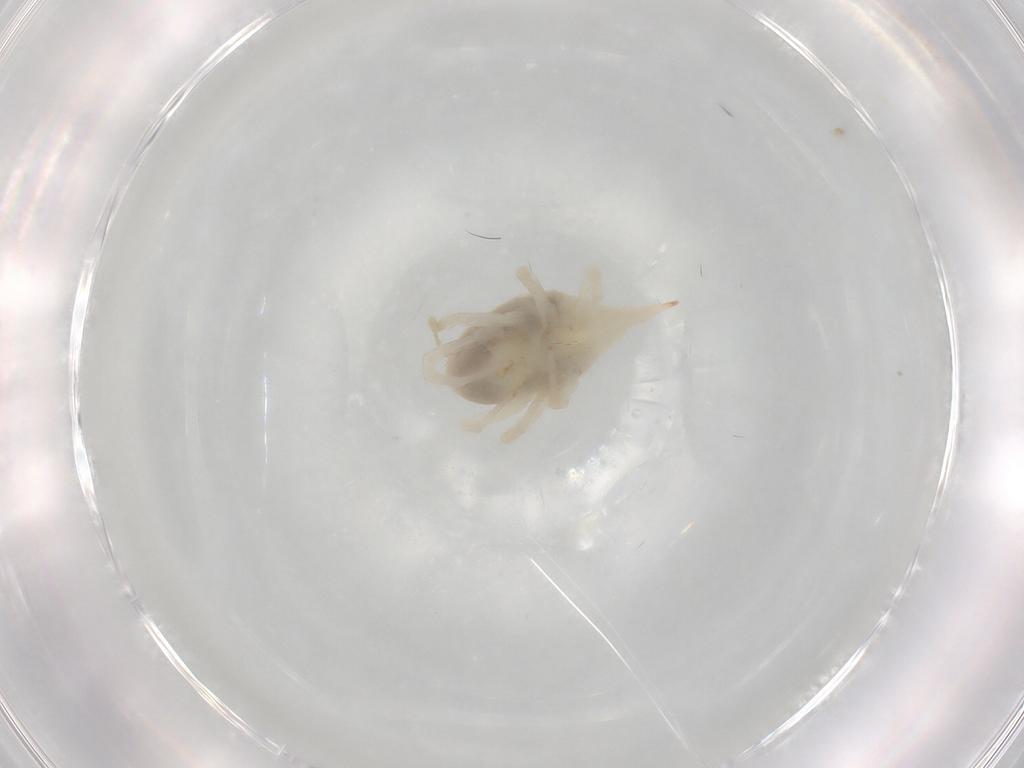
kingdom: Animalia
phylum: Arthropoda
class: Arachnida
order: Trombidiformes
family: Bdellidae
